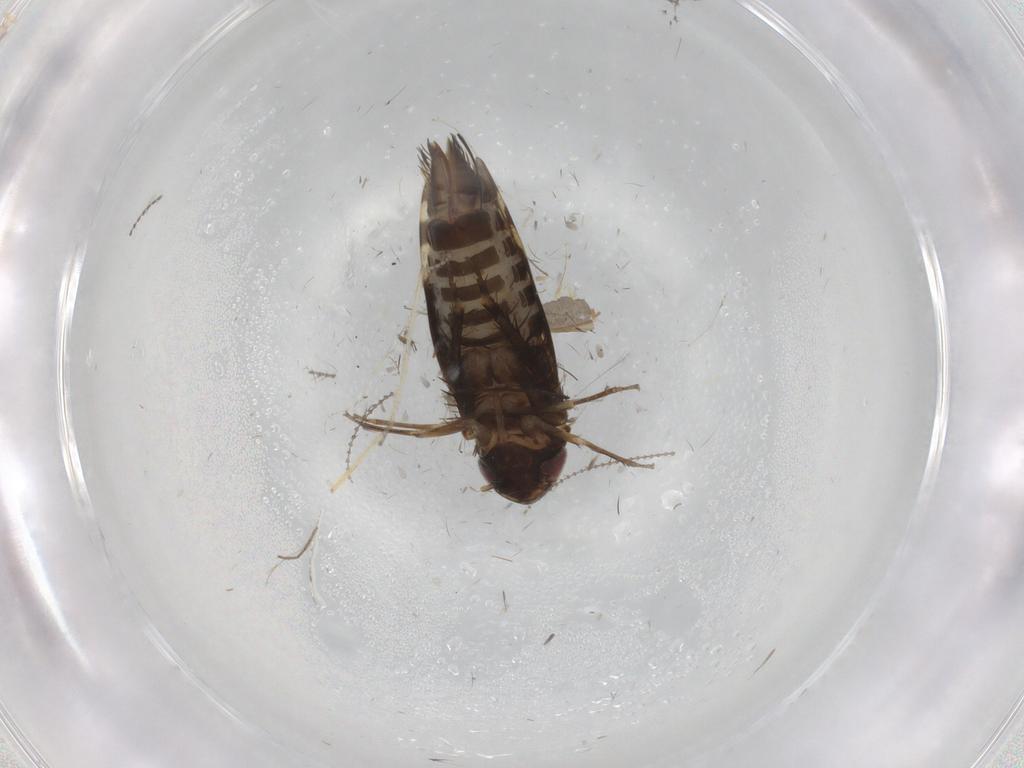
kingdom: Animalia
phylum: Arthropoda
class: Insecta
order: Hemiptera
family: Cicadellidae
